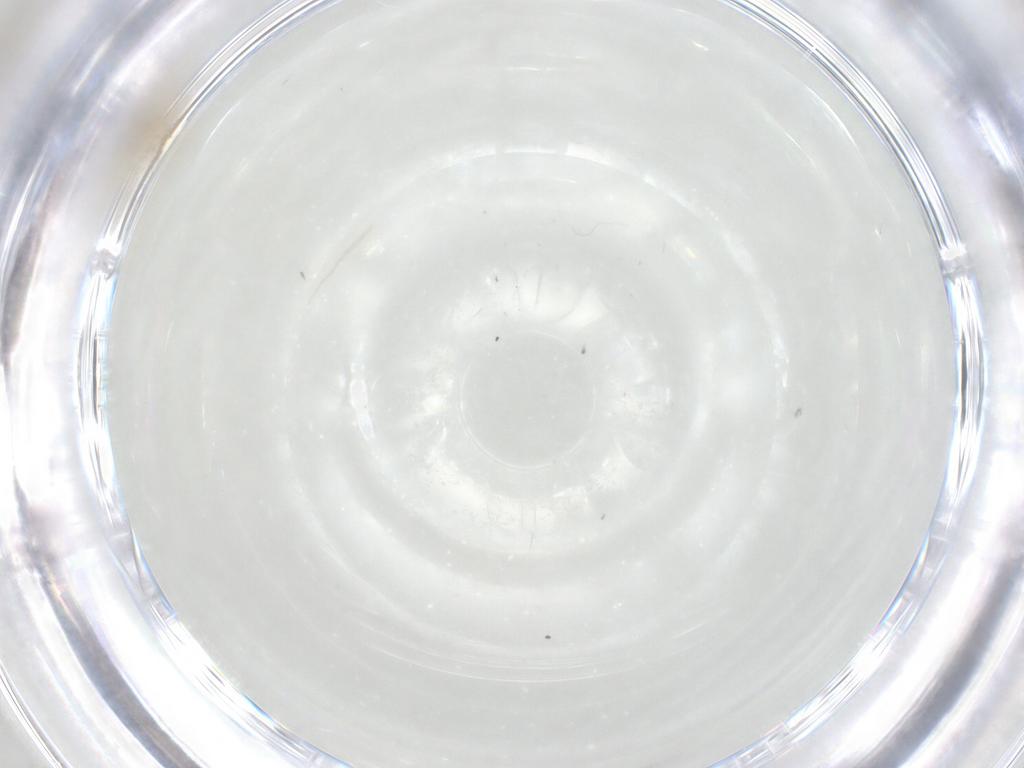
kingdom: Animalia
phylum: Arthropoda
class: Insecta
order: Diptera
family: Chironomidae
